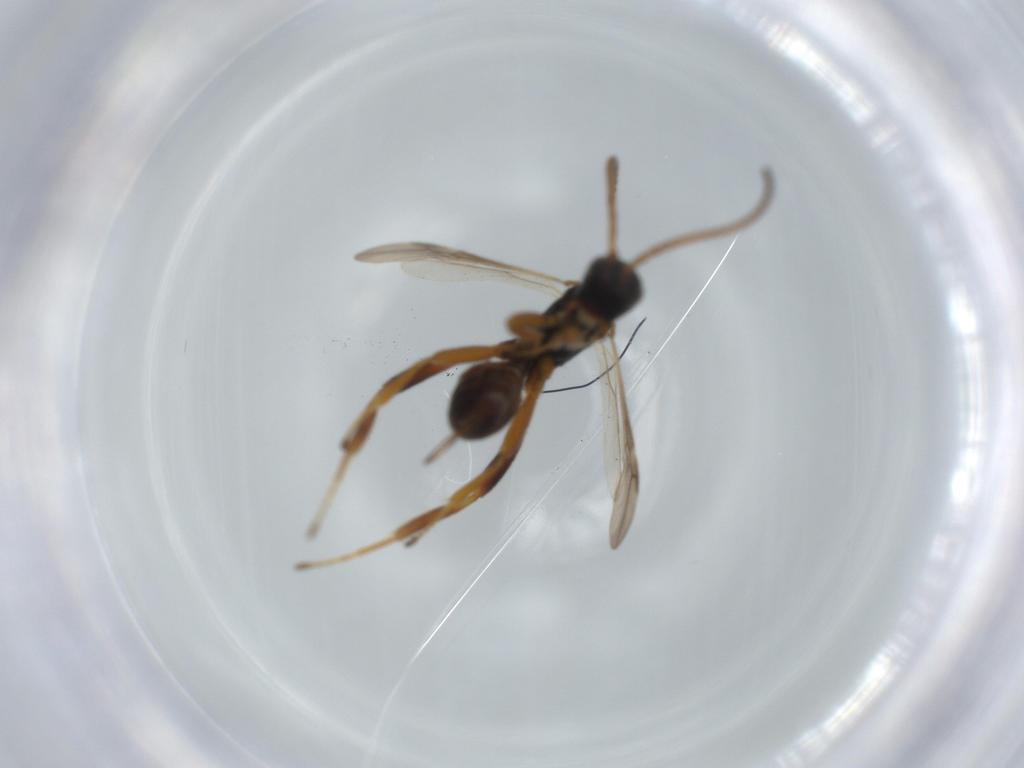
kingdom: Animalia
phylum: Arthropoda
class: Insecta
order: Hymenoptera
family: Braconidae
